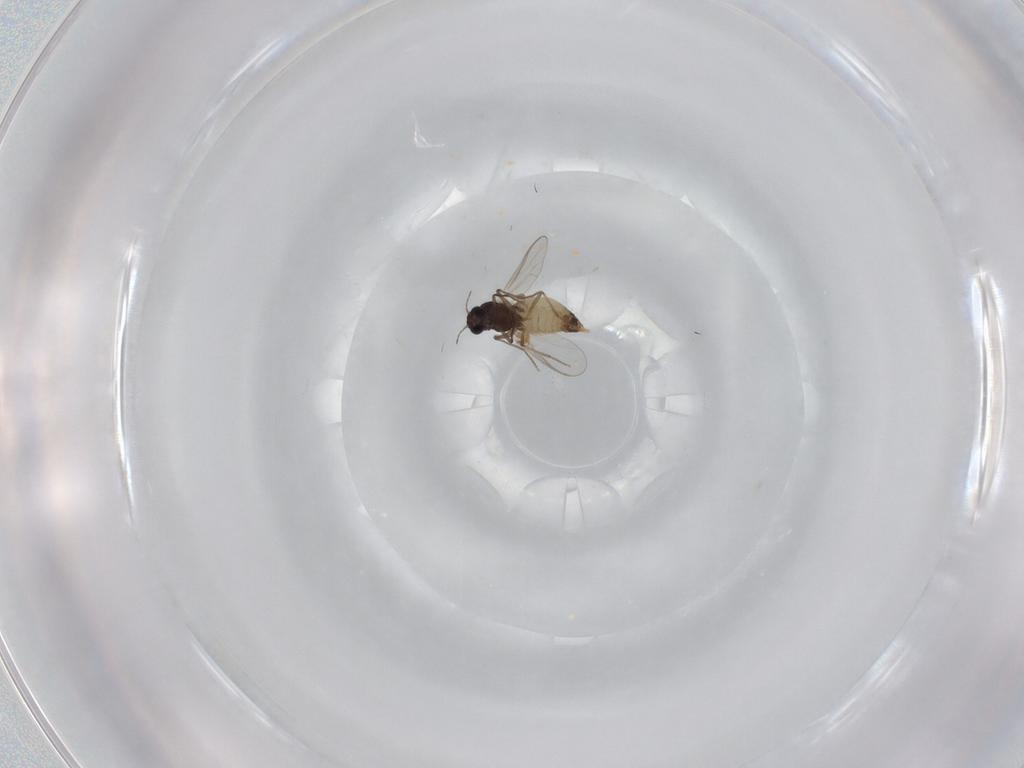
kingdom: Animalia
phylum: Arthropoda
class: Insecta
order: Diptera
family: Chironomidae
